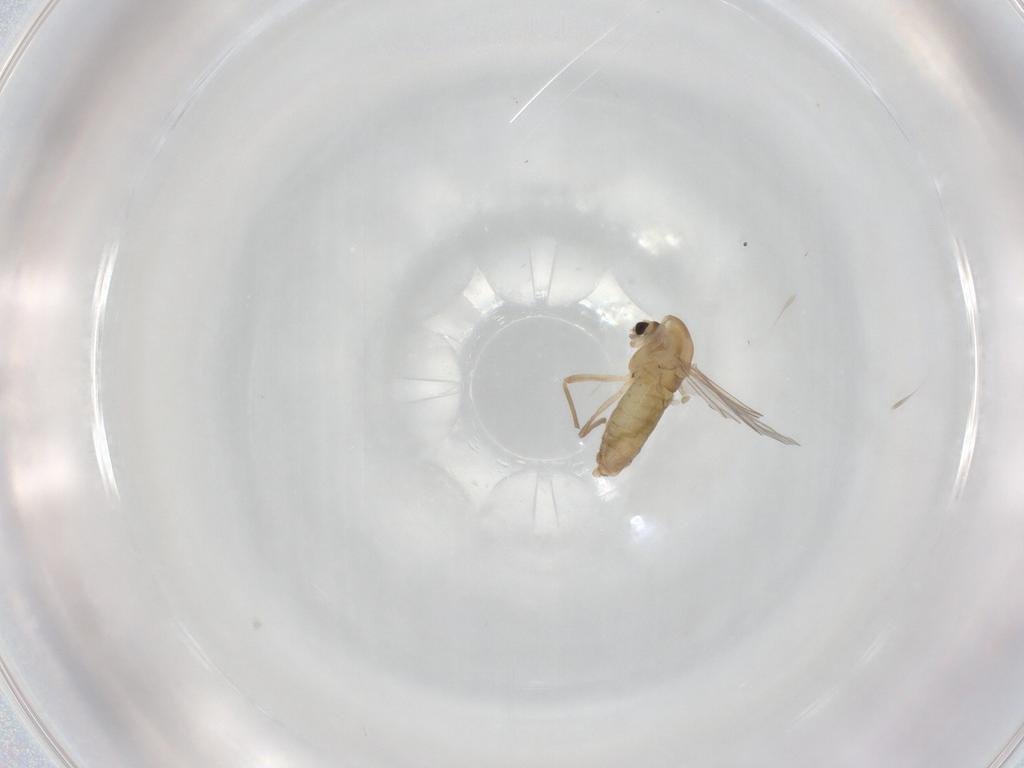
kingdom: Animalia
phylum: Arthropoda
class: Insecta
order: Diptera
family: Chironomidae
